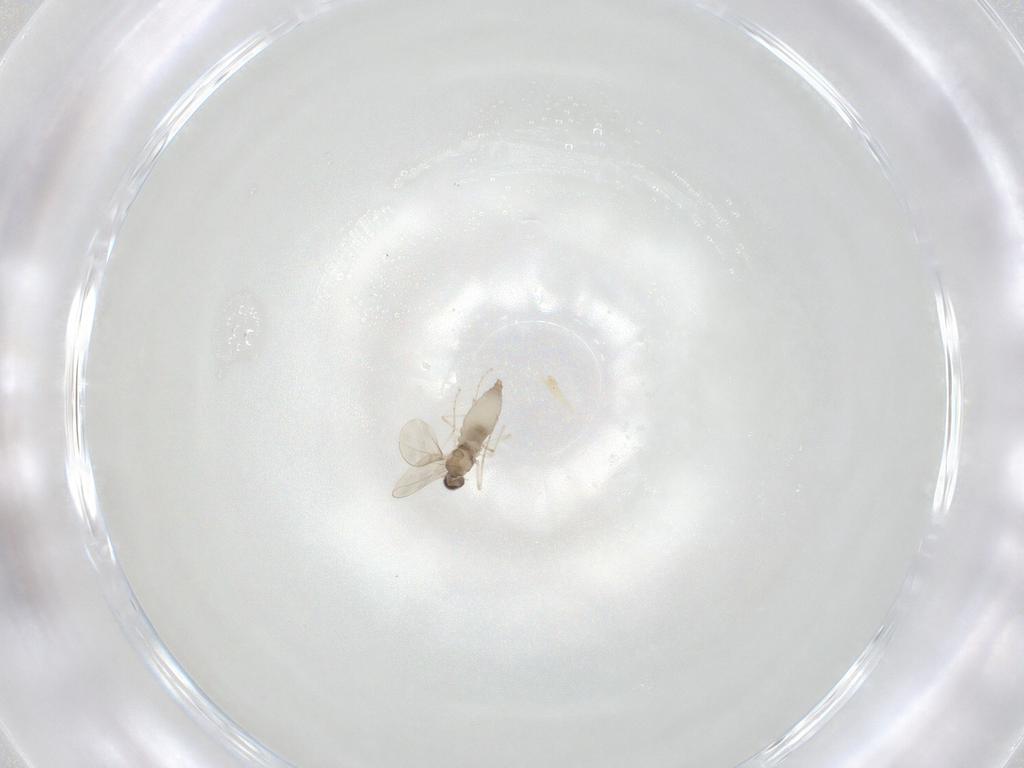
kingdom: Animalia
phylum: Arthropoda
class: Insecta
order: Diptera
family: Cecidomyiidae
